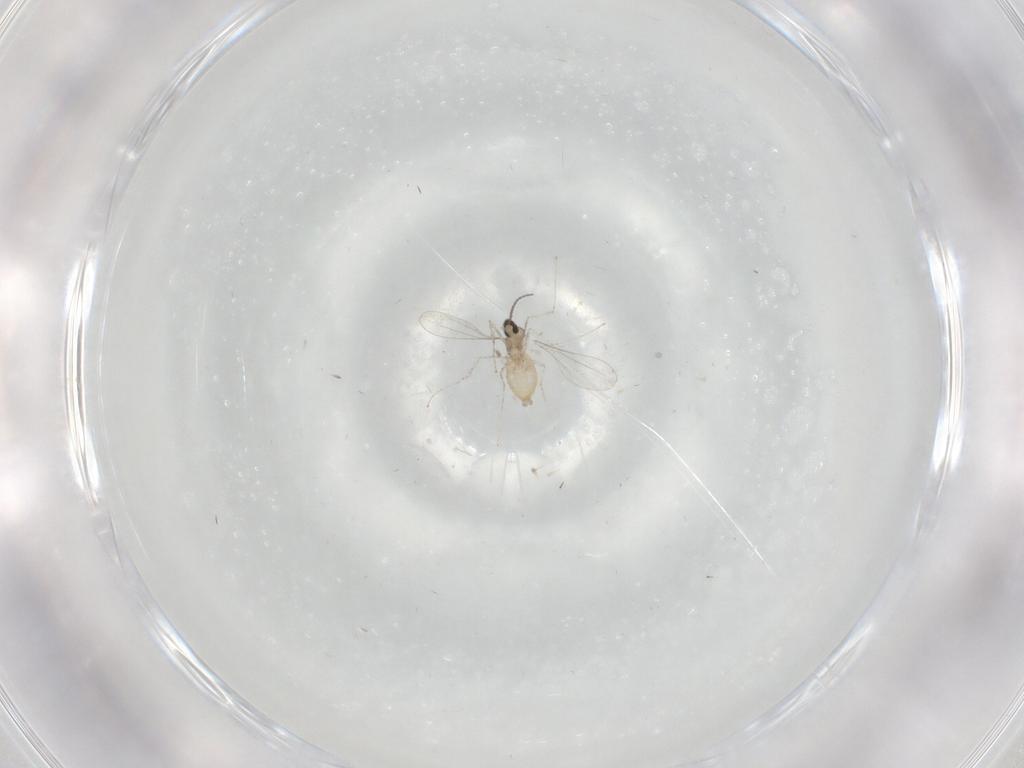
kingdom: Animalia
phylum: Arthropoda
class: Insecta
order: Diptera
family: Cecidomyiidae
